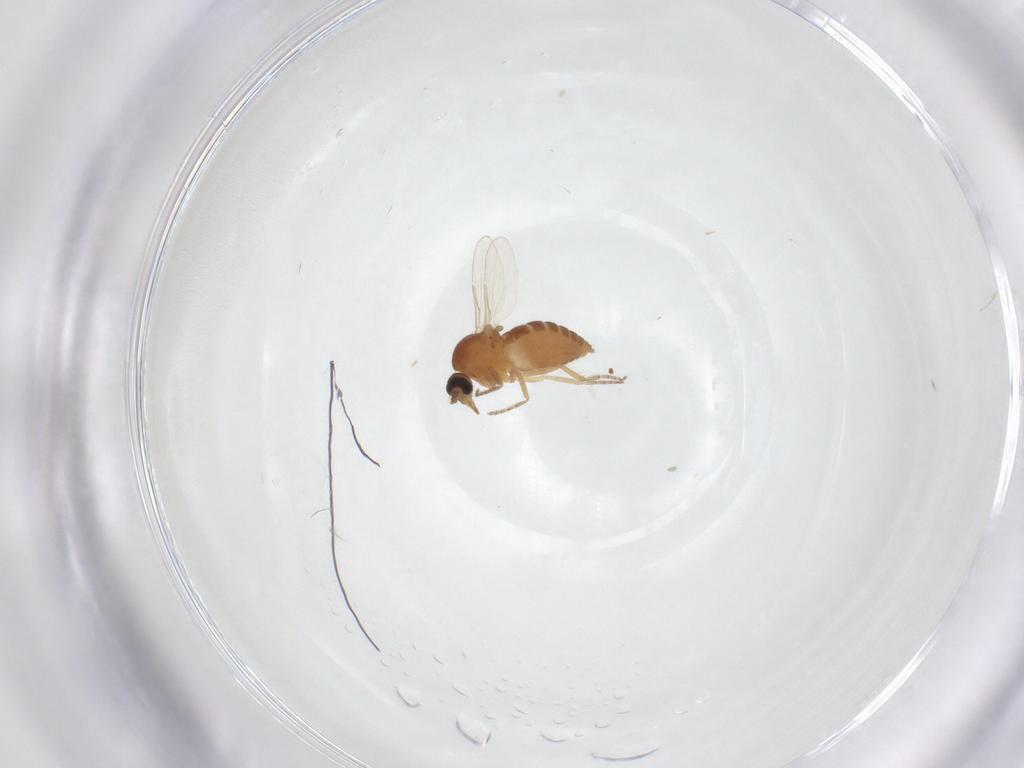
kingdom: Animalia
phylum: Arthropoda
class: Insecta
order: Diptera
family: Ceratopogonidae
